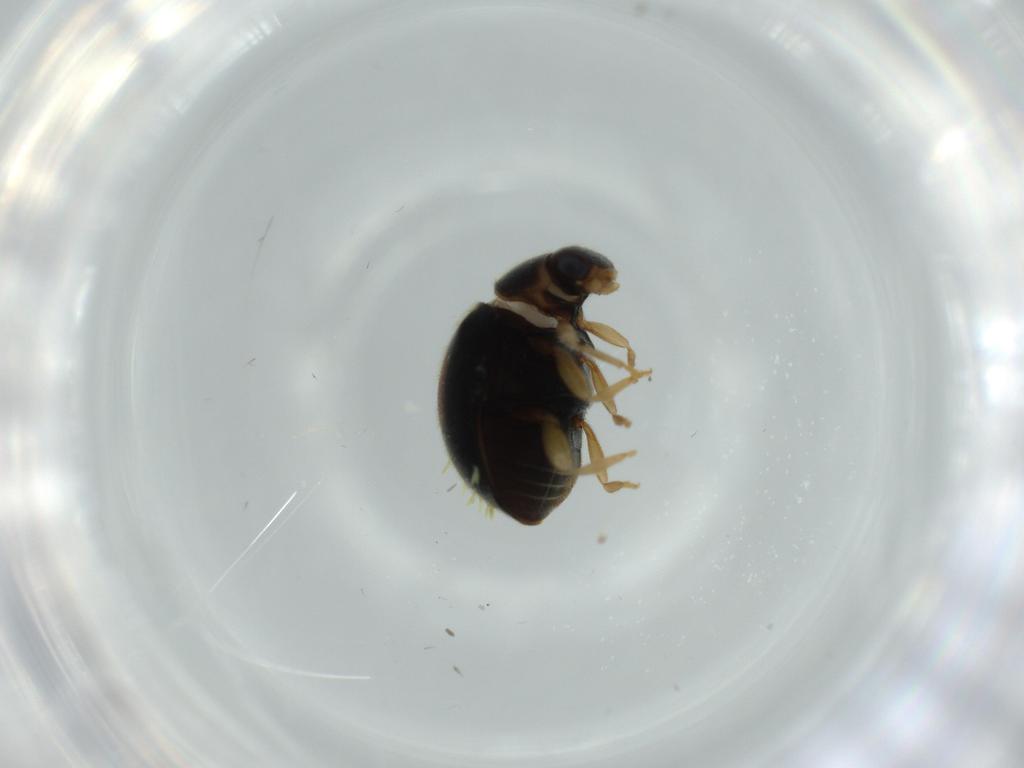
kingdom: Animalia
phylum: Arthropoda
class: Insecta
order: Coleoptera
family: Coccinellidae
